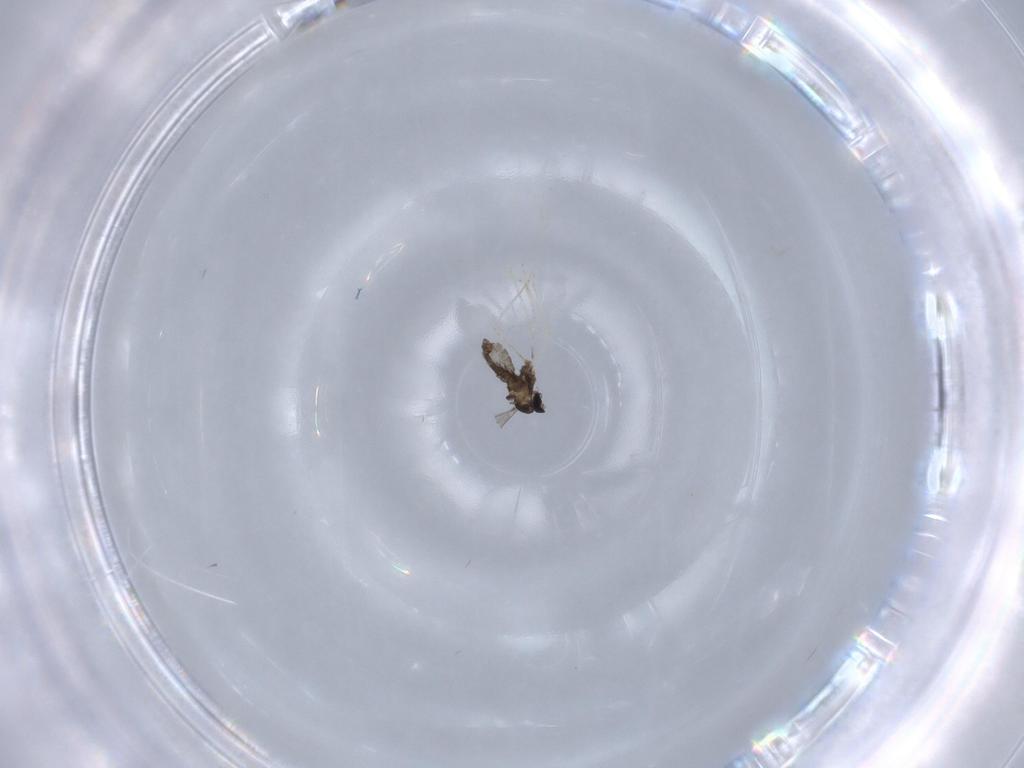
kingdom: Animalia
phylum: Arthropoda
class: Insecta
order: Diptera
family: Cecidomyiidae
